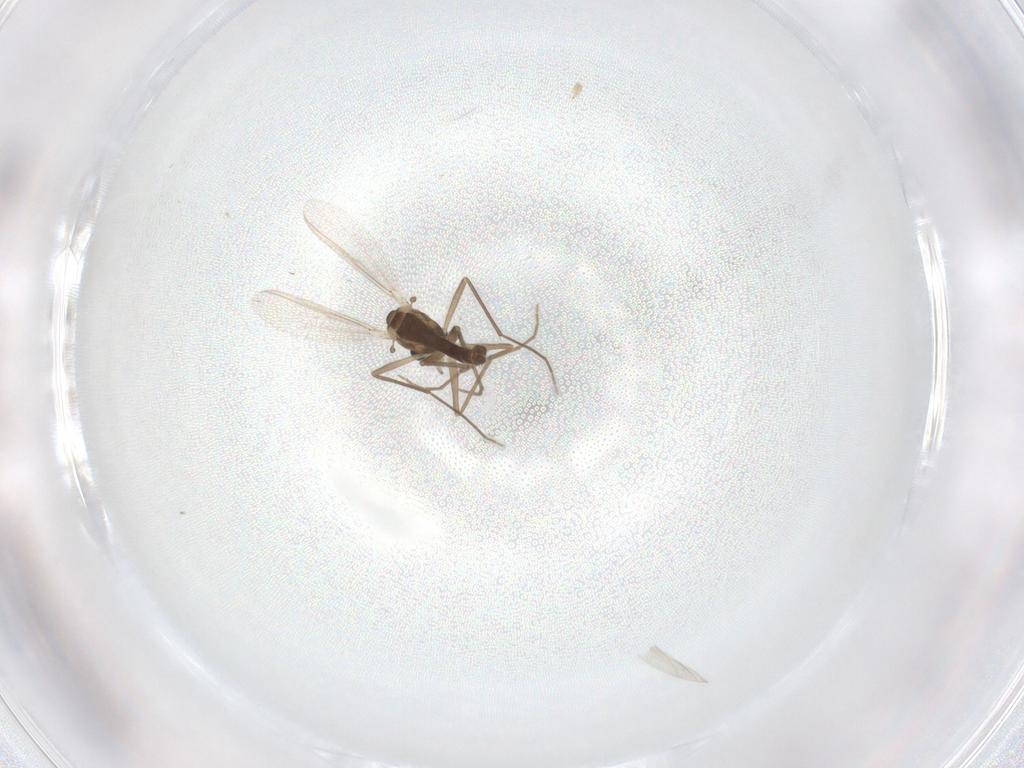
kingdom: Animalia
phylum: Arthropoda
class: Insecta
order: Diptera
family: Chironomidae
